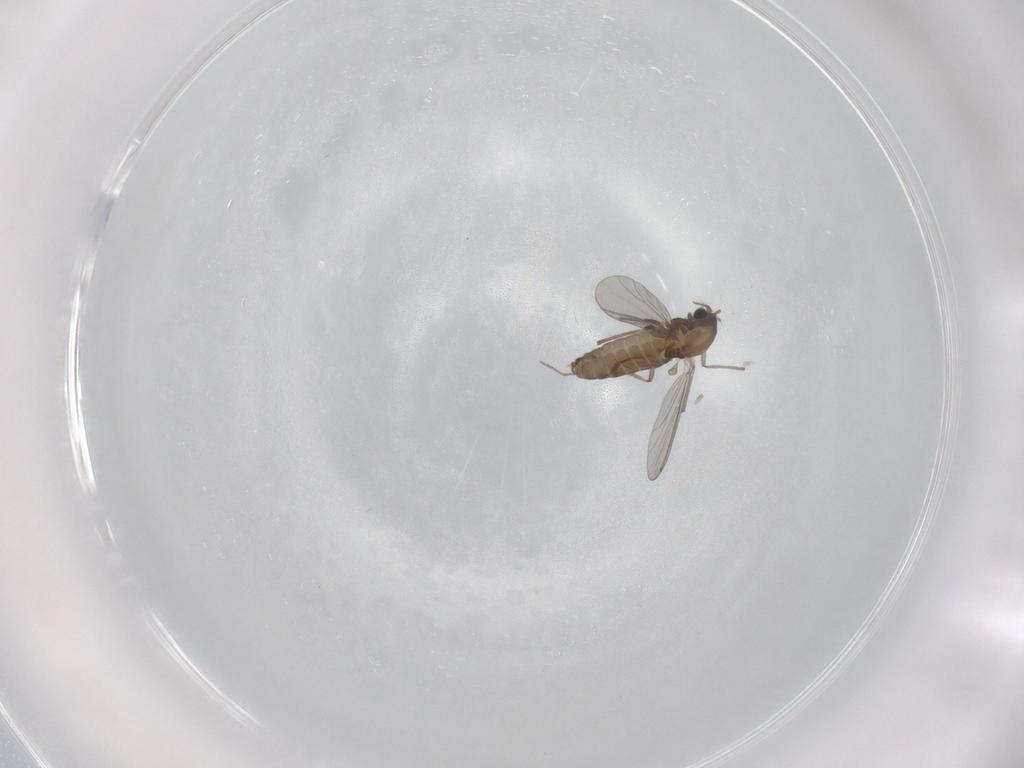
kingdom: Animalia
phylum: Arthropoda
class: Insecta
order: Diptera
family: Chironomidae
